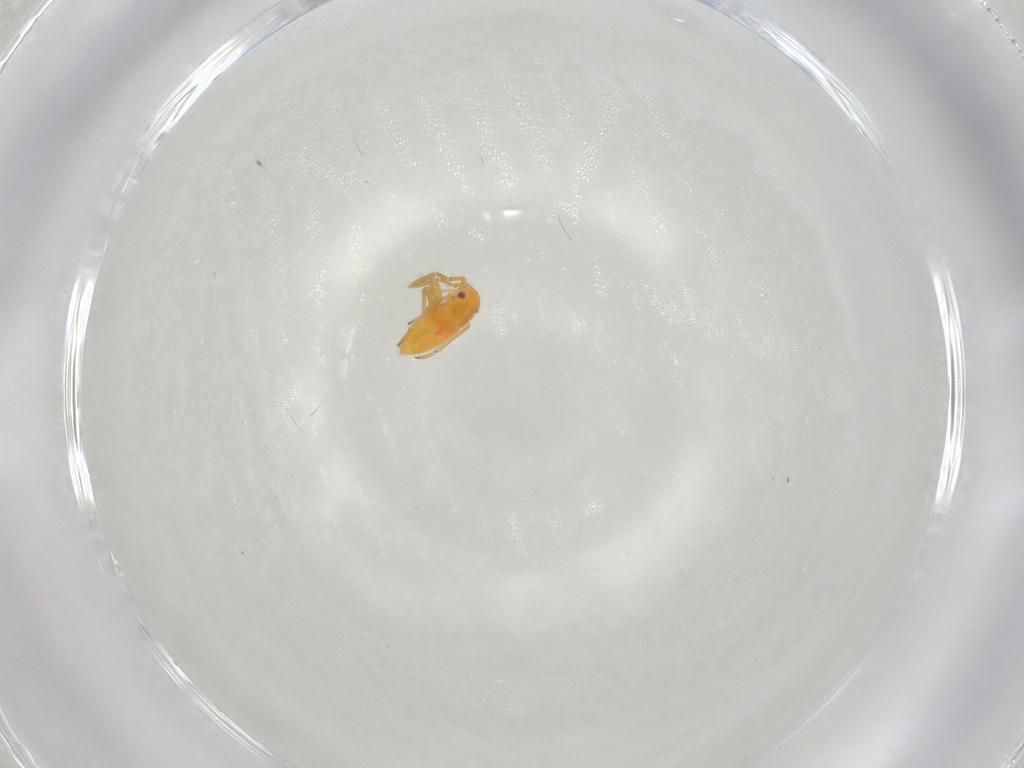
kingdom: Animalia
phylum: Arthropoda
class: Insecta
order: Hemiptera
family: Miridae
